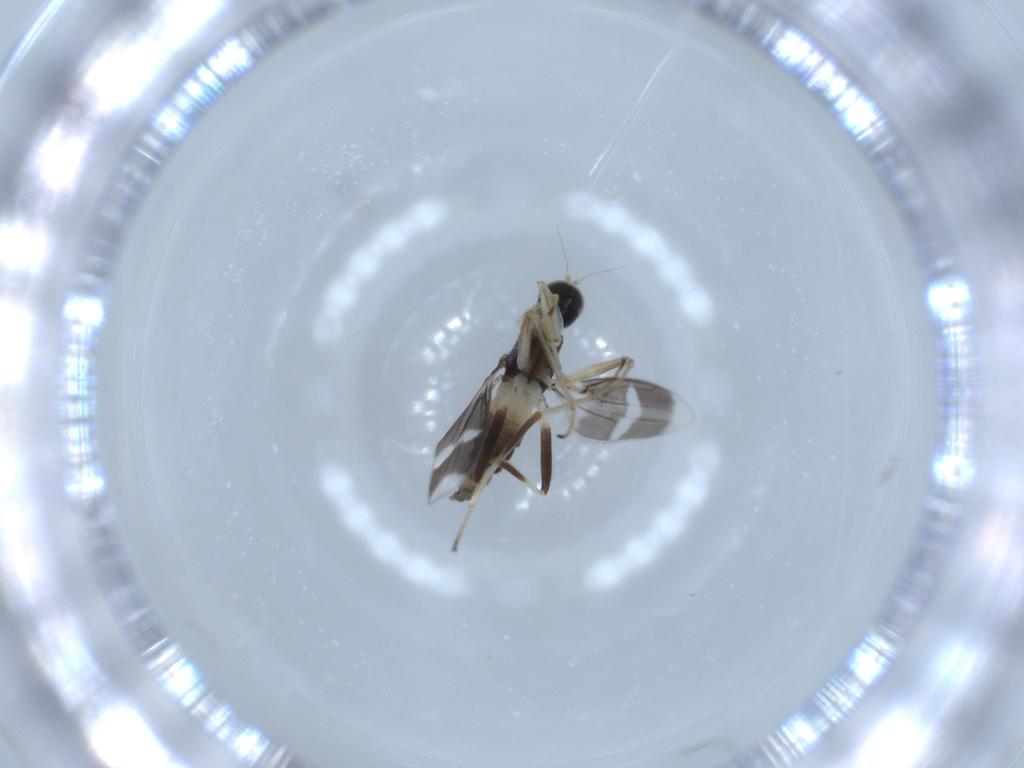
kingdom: Animalia
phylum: Arthropoda
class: Insecta
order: Diptera
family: Hybotidae
